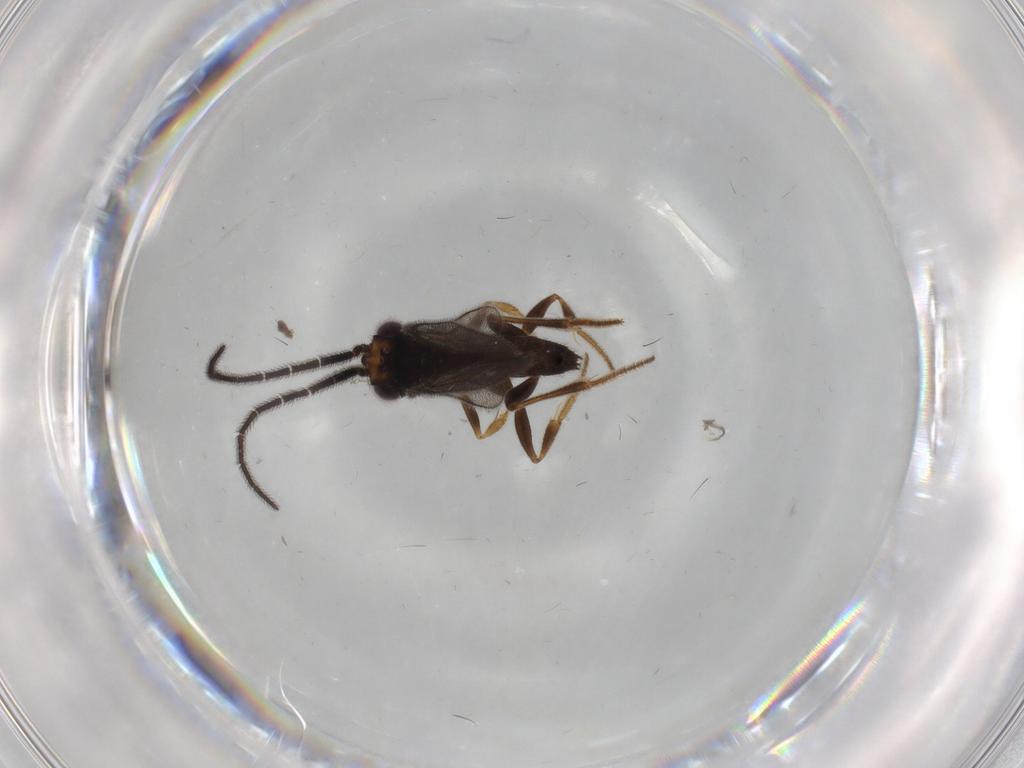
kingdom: Animalia
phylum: Arthropoda
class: Insecta
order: Hymenoptera
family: Dryinidae
